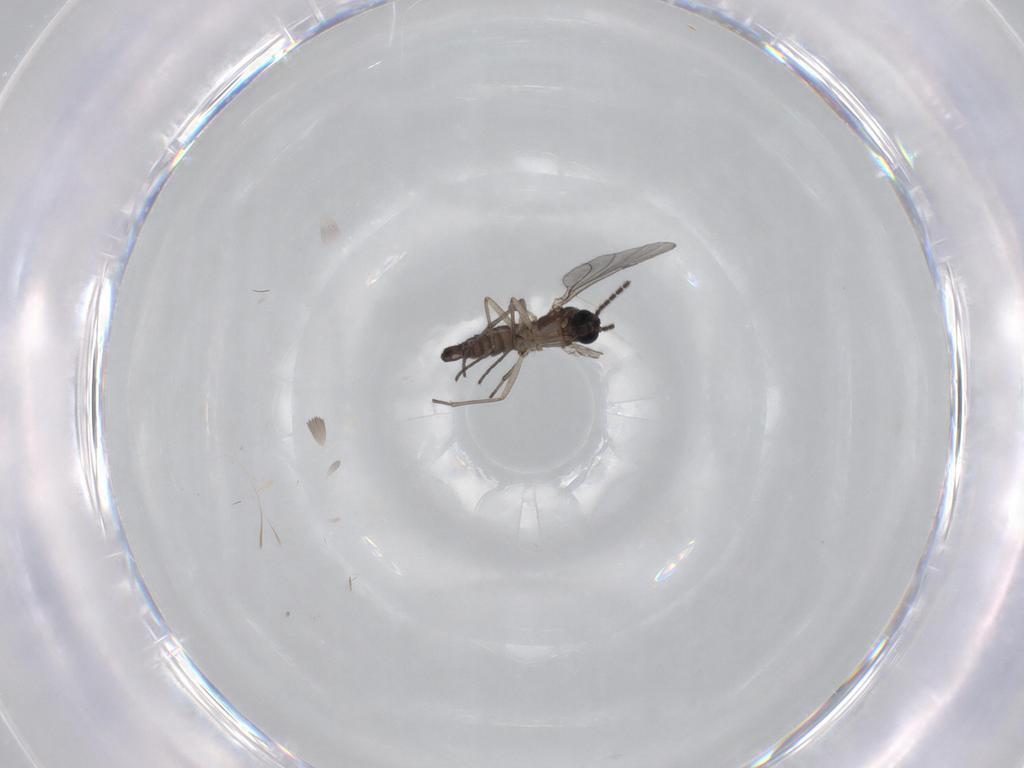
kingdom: Animalia
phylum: Arthropoda
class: Insecta
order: Diptera
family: Sciaridae
